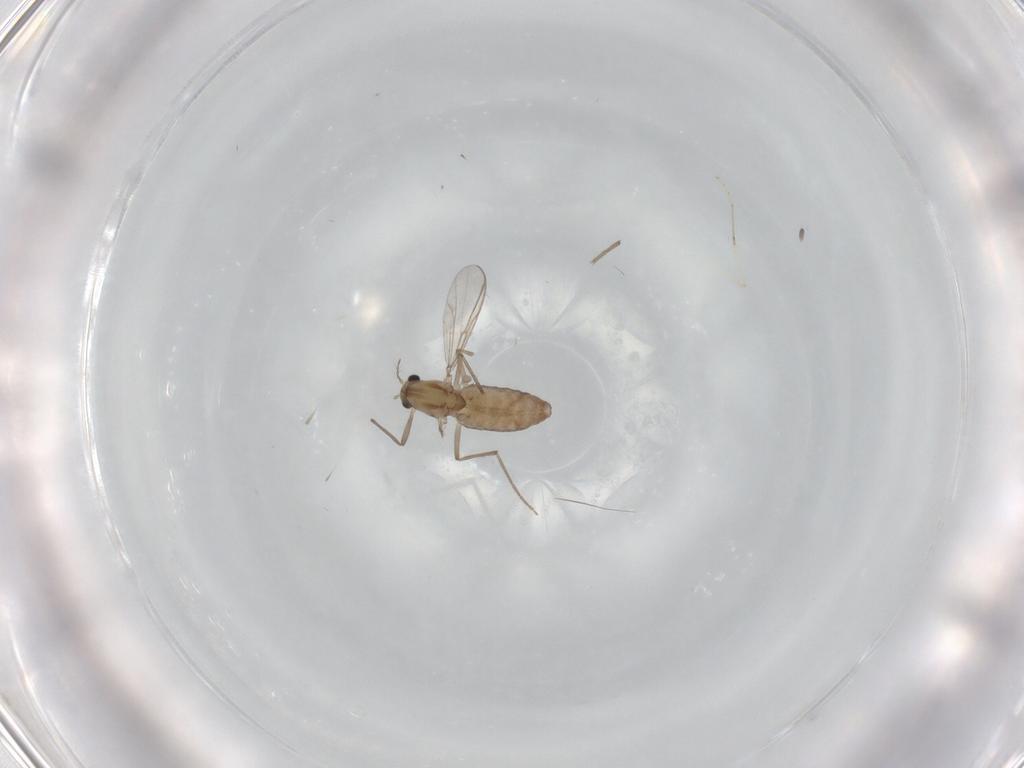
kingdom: Animalia
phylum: Arthropoda
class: Insecta
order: Diptera
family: Chironomidae
